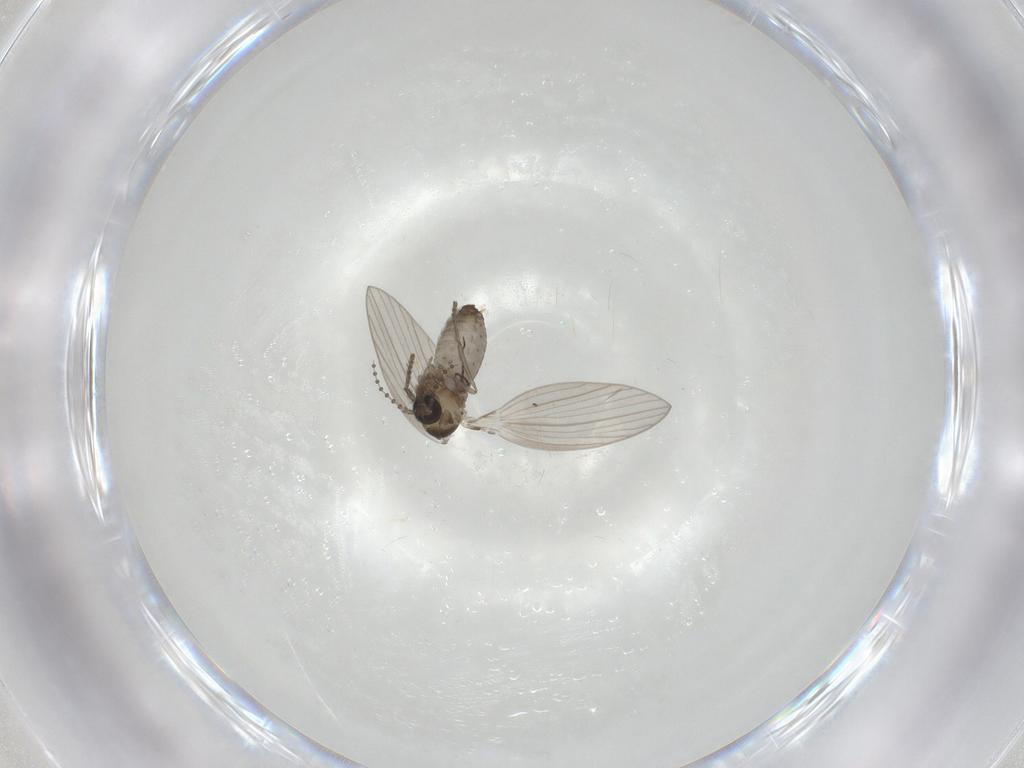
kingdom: Animalia
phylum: Arthropoda
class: Insecta
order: Diptera
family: Psychodidae
